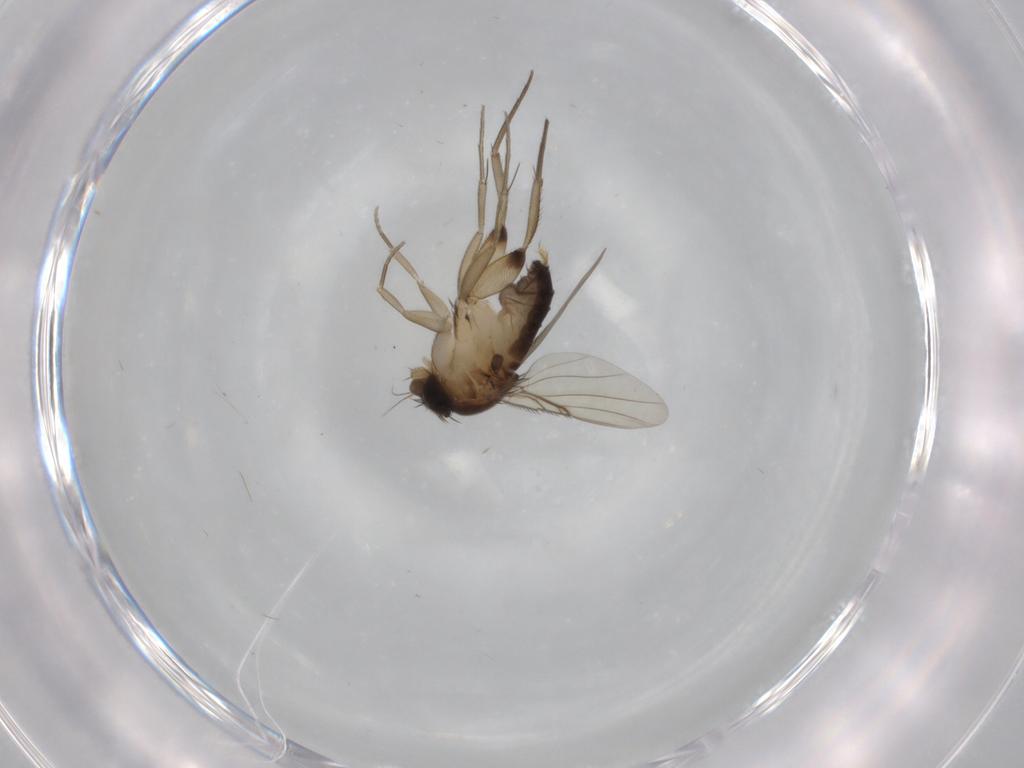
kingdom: Animalia
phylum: Arthropoda
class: Insecta
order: Diptera
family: Phoridae
